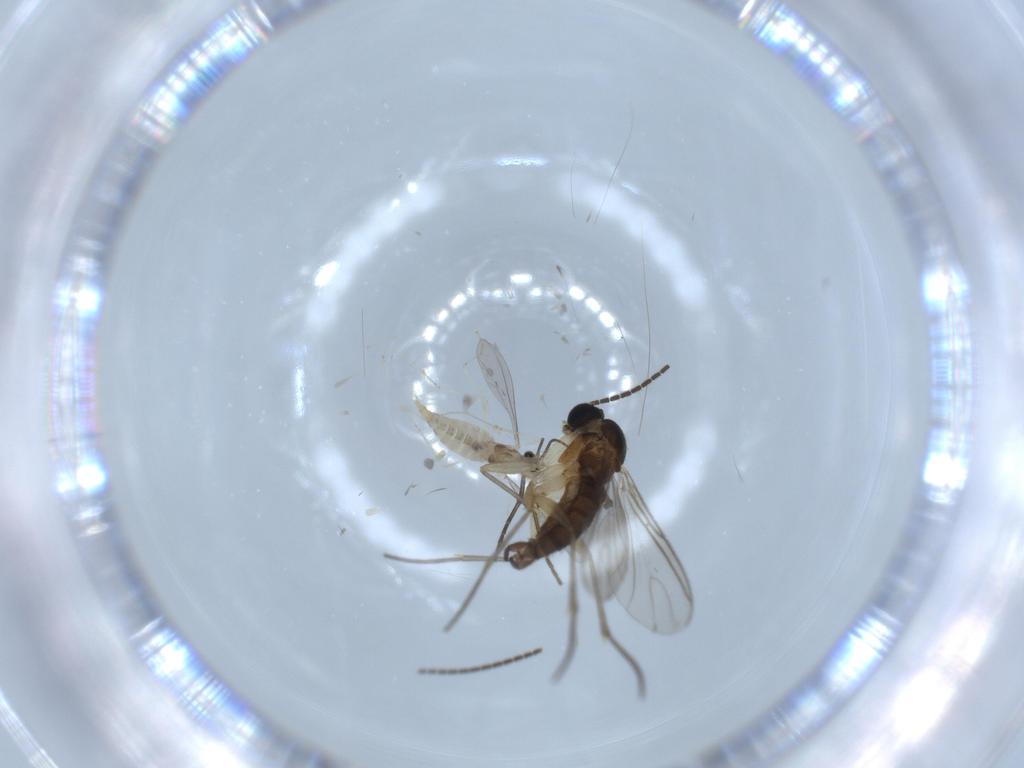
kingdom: Animalia
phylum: Arthropoda
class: Insecta
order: Diptera
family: Sciaridae
